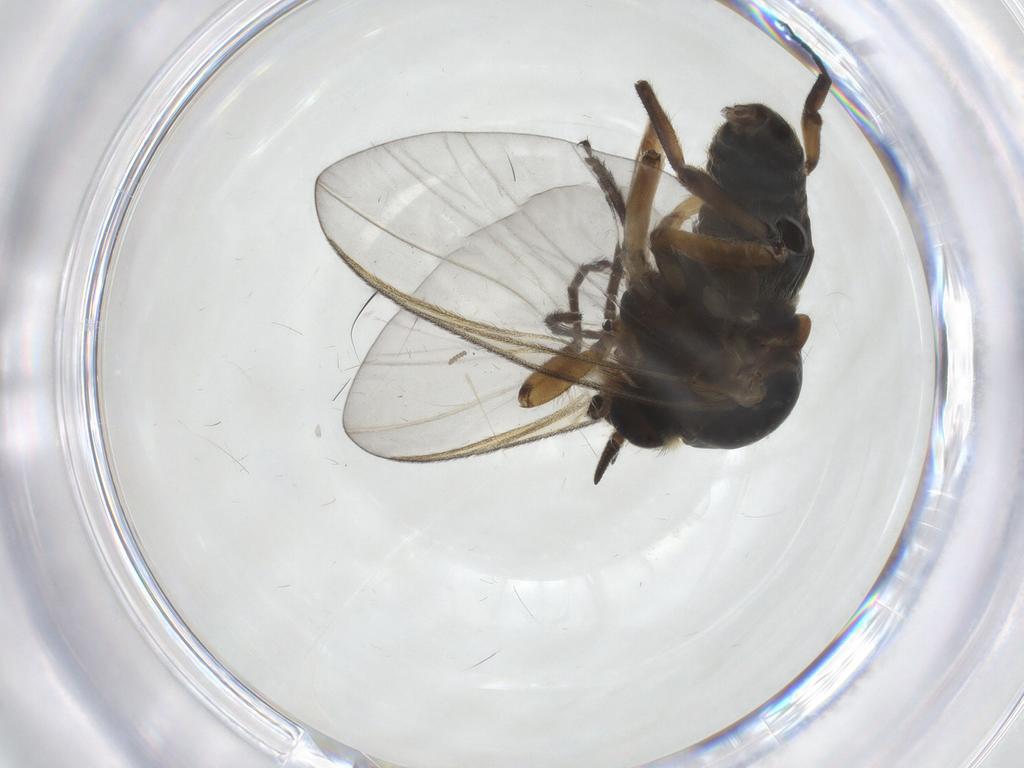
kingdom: Animalia
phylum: Arthropoda
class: Insecta
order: Diptera
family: Simuliidae
